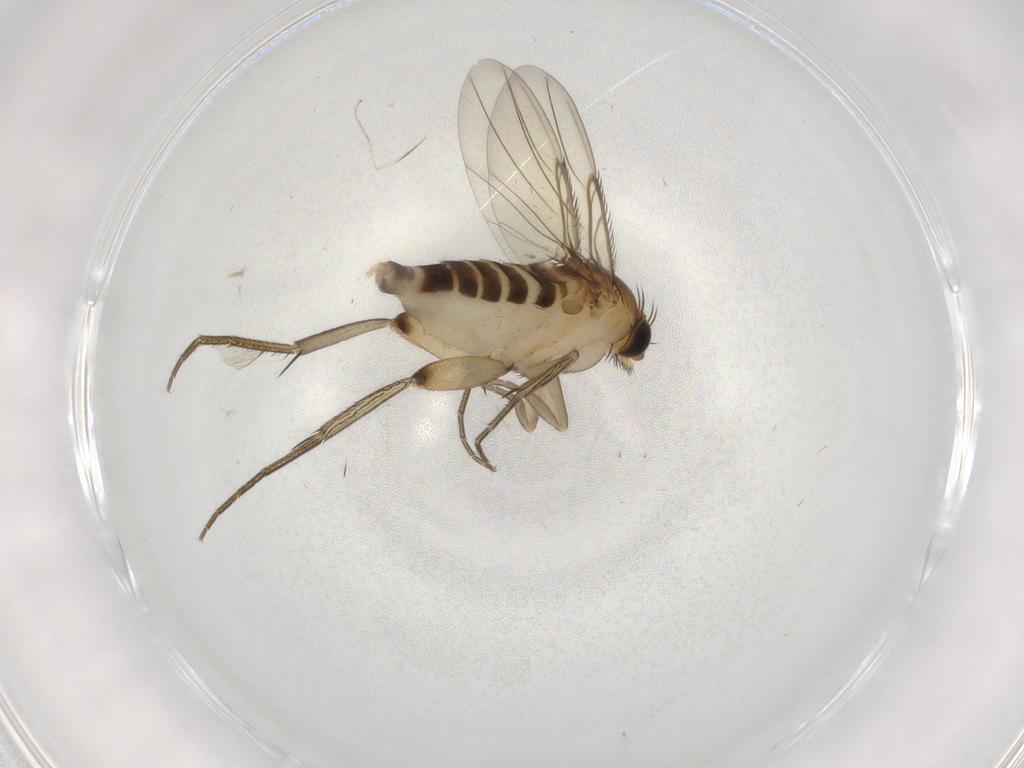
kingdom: Animalia
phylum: Arthropoda
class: Insecta
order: Diptera
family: Phoridae
